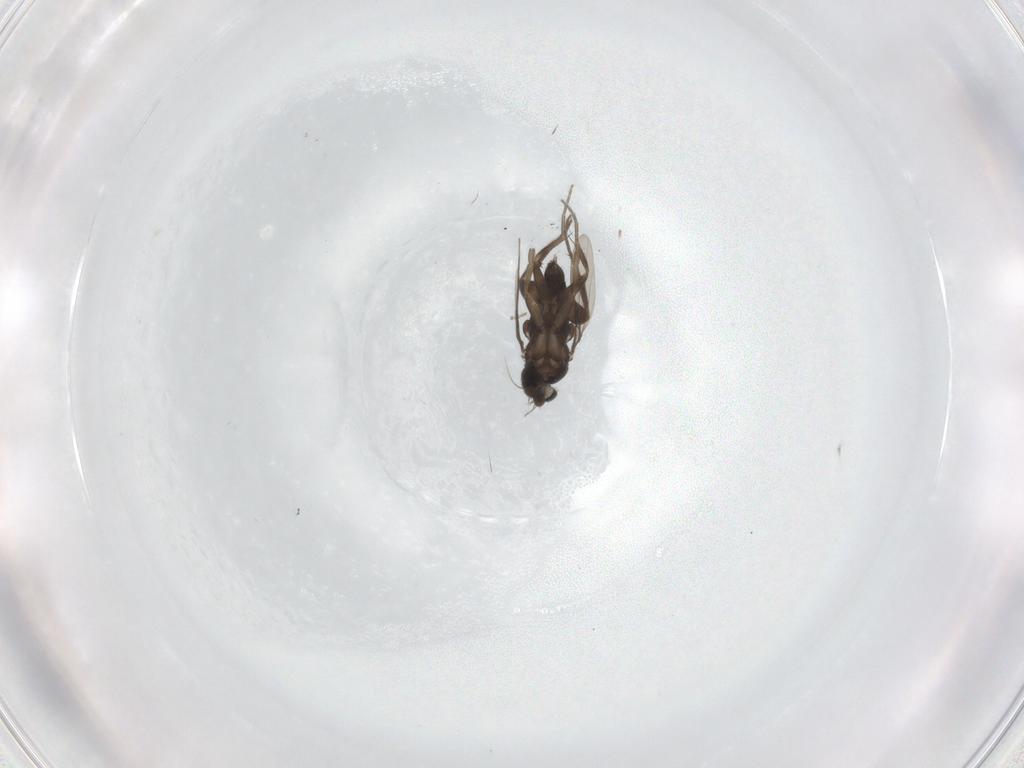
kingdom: Animalia
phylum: Arthropoda
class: Insecta
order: Diptera
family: Phoridae
